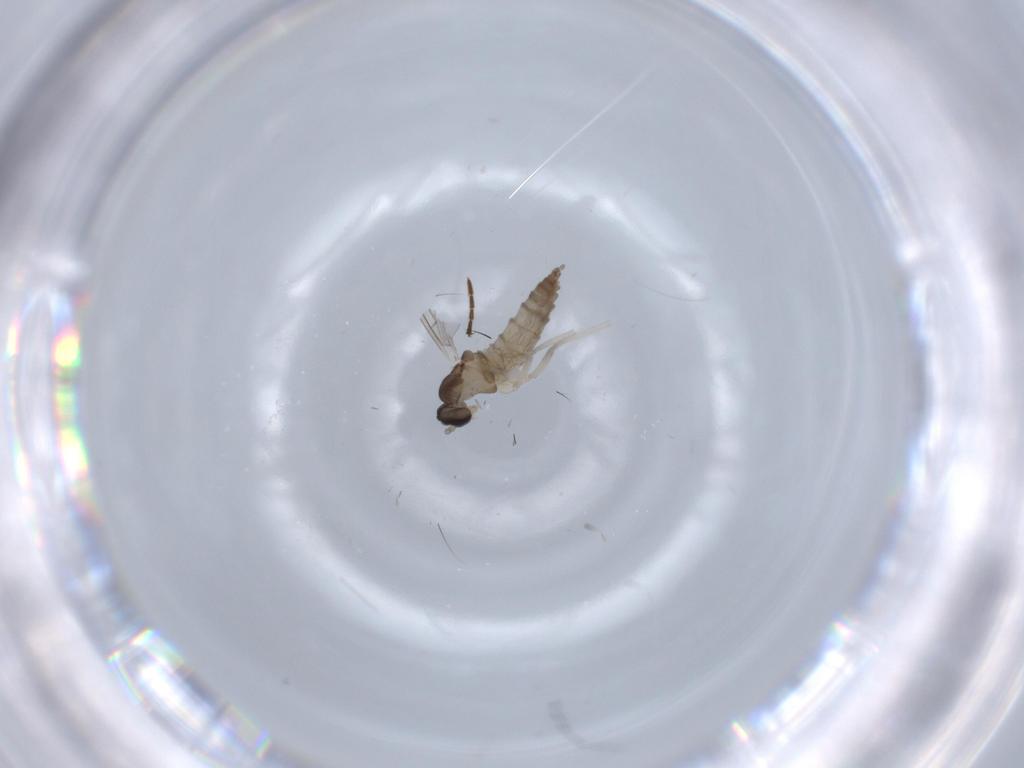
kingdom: Animalia
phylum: Arthropoda
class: Insecta
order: Diptera
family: Cecidomyiidae
